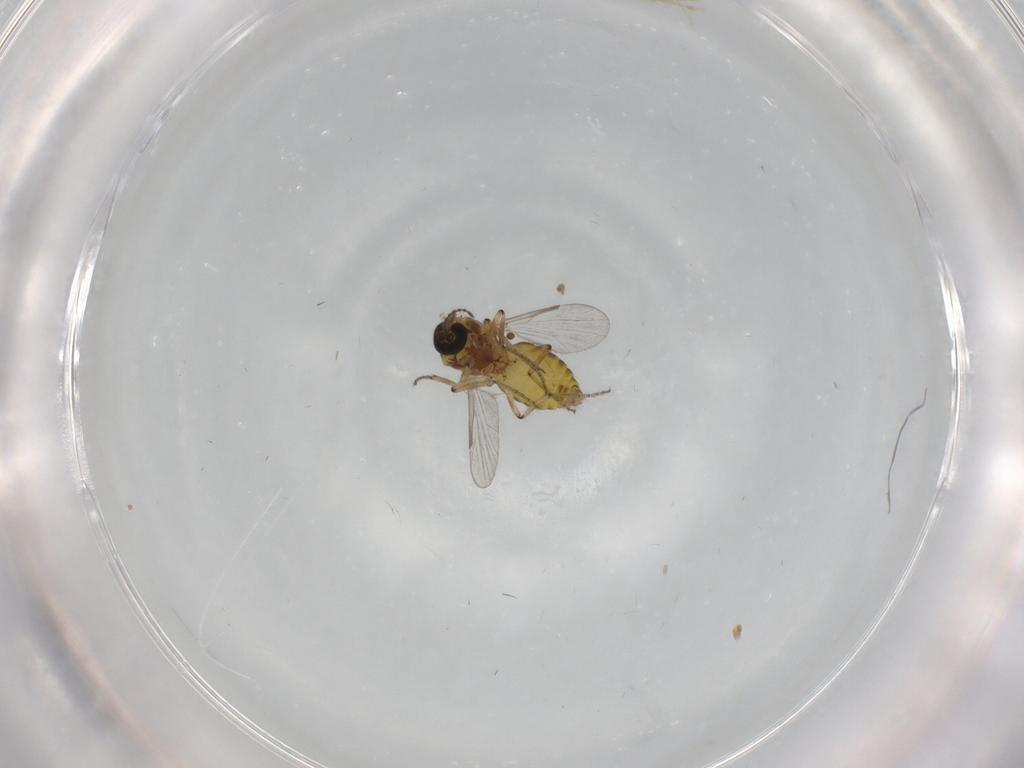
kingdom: Animalia
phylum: Arthropoda
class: Insecta
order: Diptera
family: Ceratopogonidae
